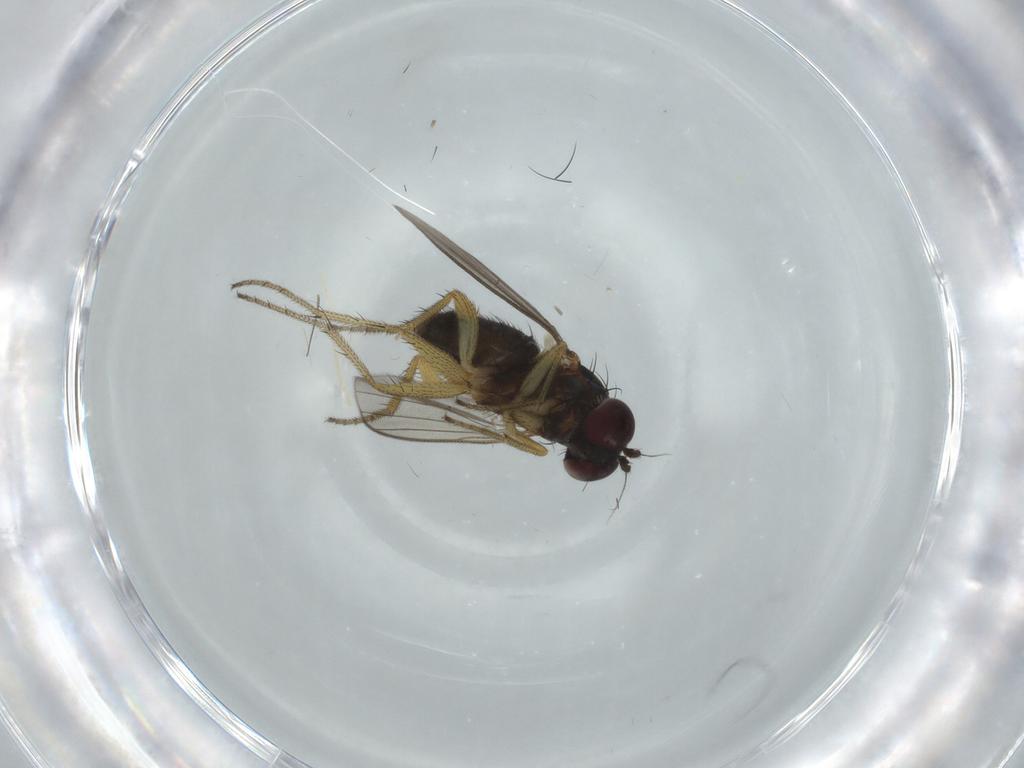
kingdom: Animalia
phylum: Arthropoda
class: Insecta
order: Diptera
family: Dolichopodidae
